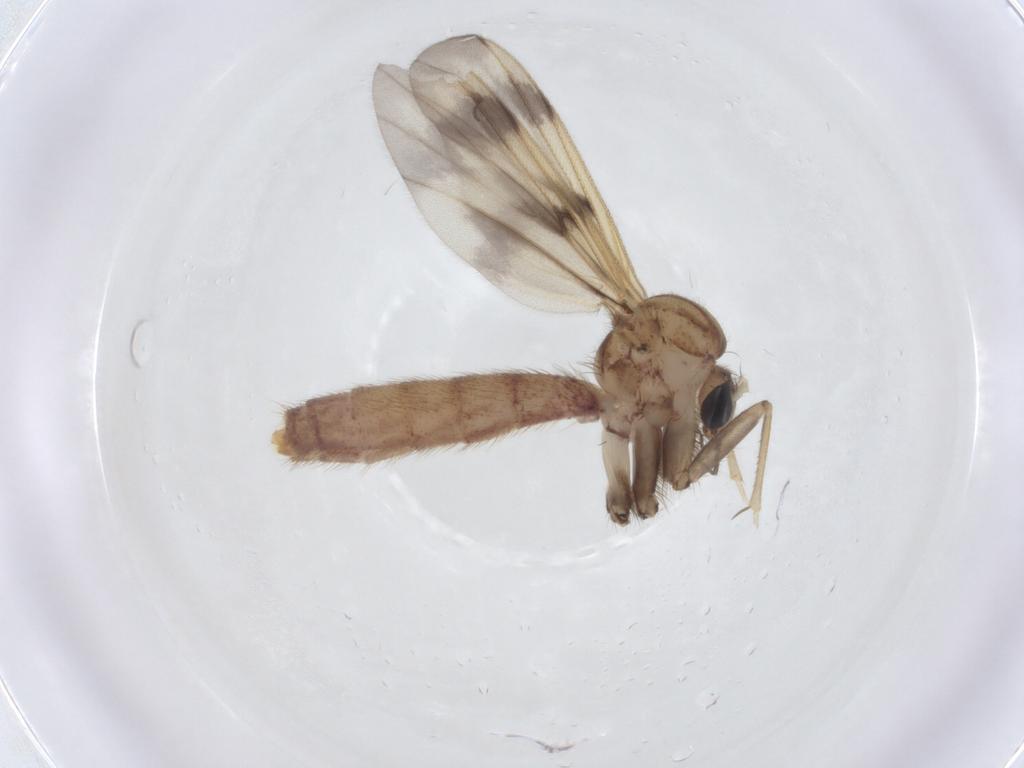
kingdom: Animalia
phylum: Arthropoda
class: Insecta
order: Diptera
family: Mycetophilidae
